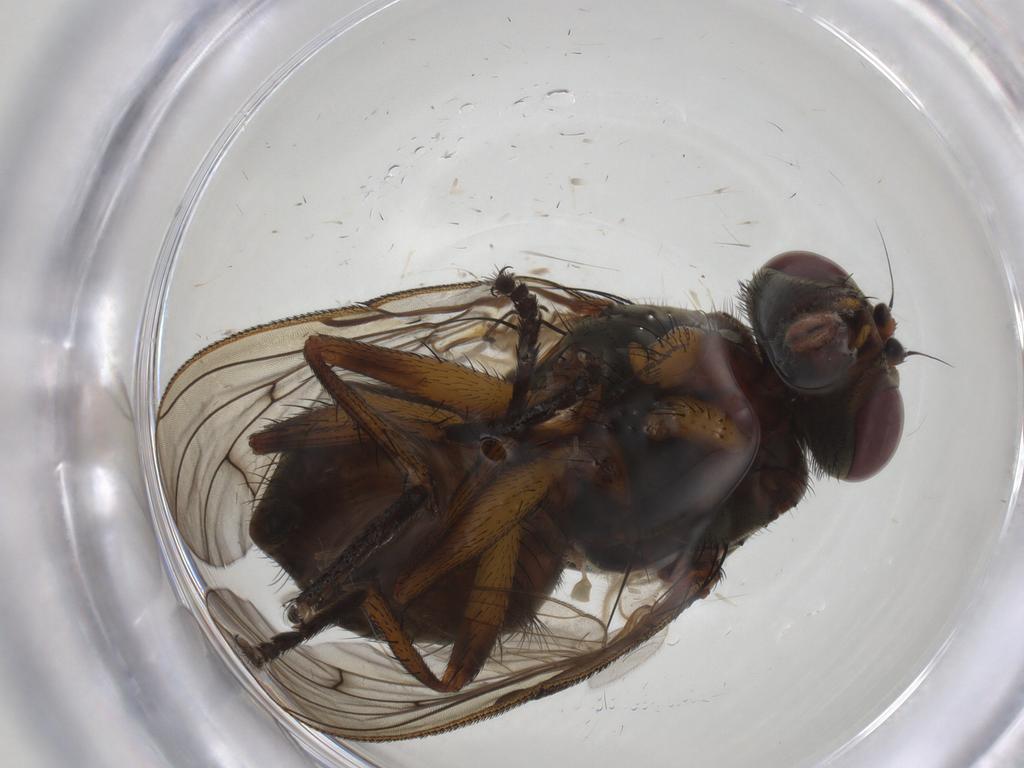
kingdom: Animalia
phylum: Arthropoda
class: Insecta
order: Diptera
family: Muscidae
